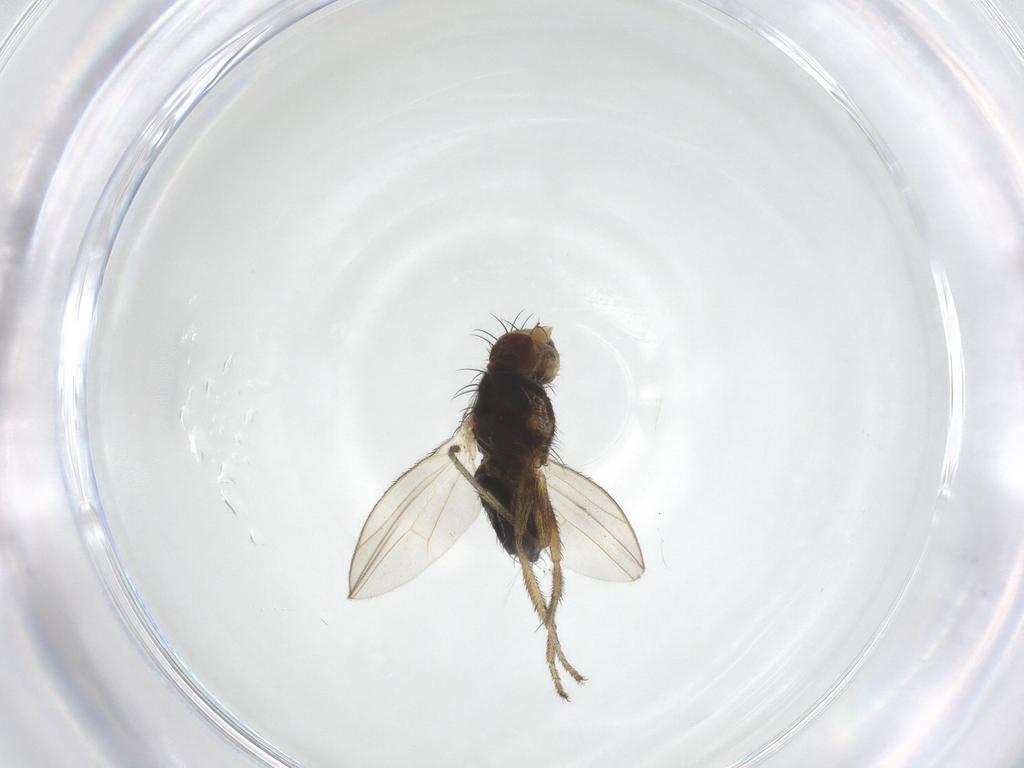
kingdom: Animalia
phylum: Arthropoda
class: Insecta
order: Diptera
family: Heleomyzidae
